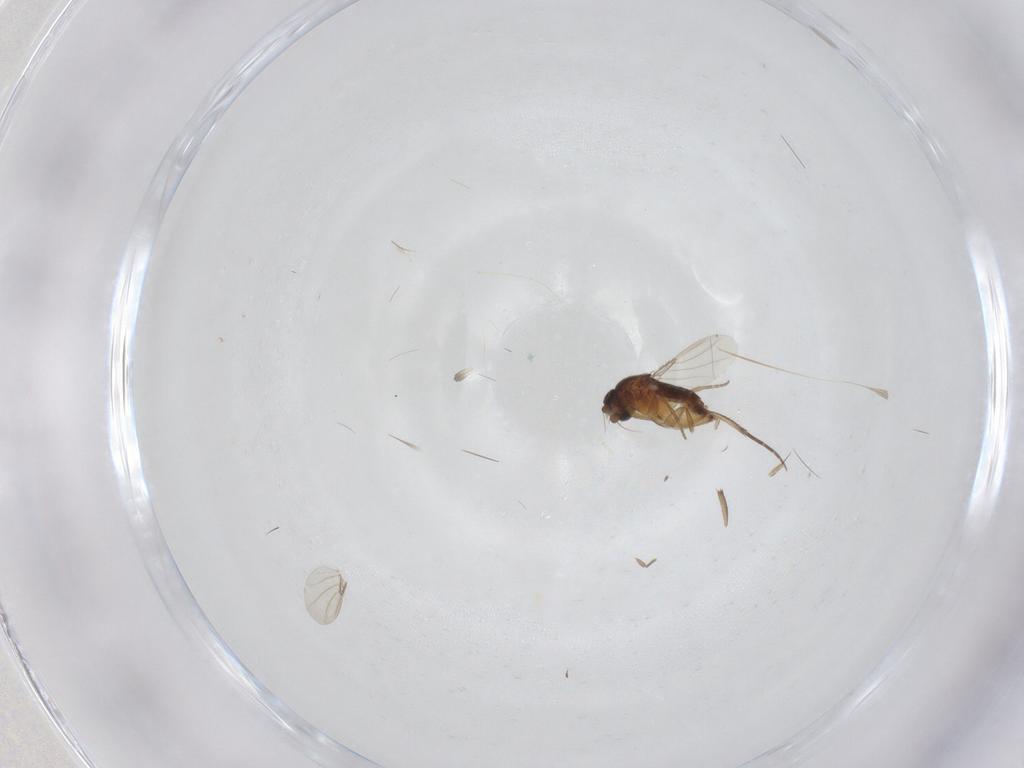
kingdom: Animalia
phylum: Arthropoda
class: Insecta
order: Diptera
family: Phoridae
